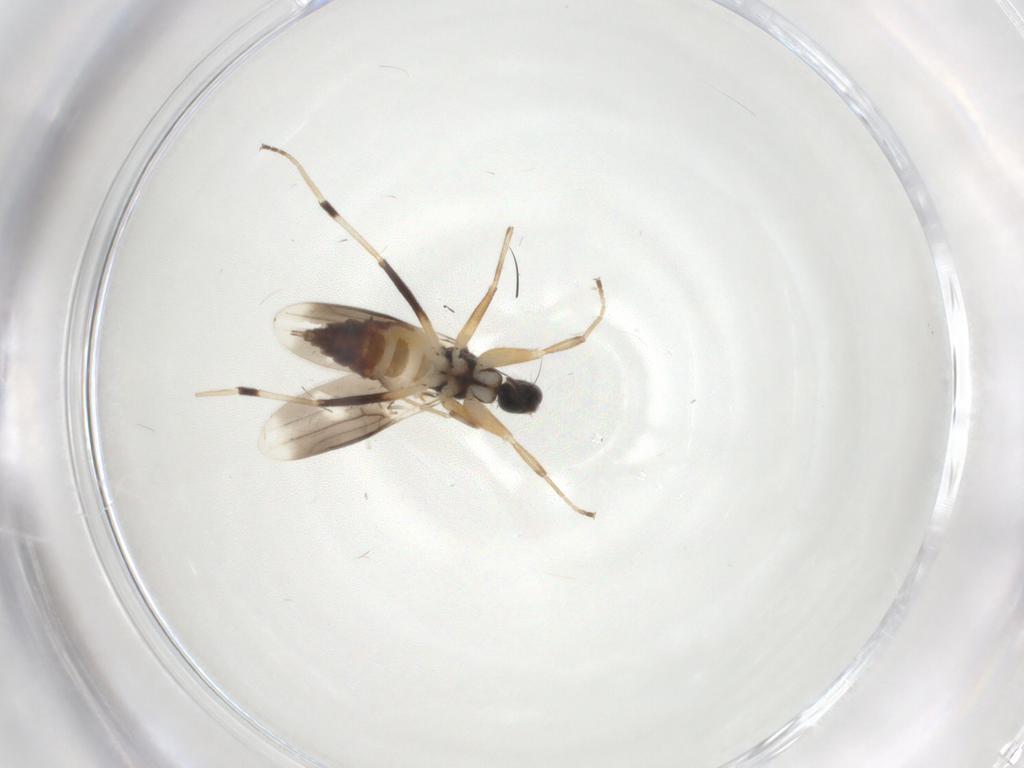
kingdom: Animalia
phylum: Arthropoda
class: Insecta
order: Diptera
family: Hybotidae
